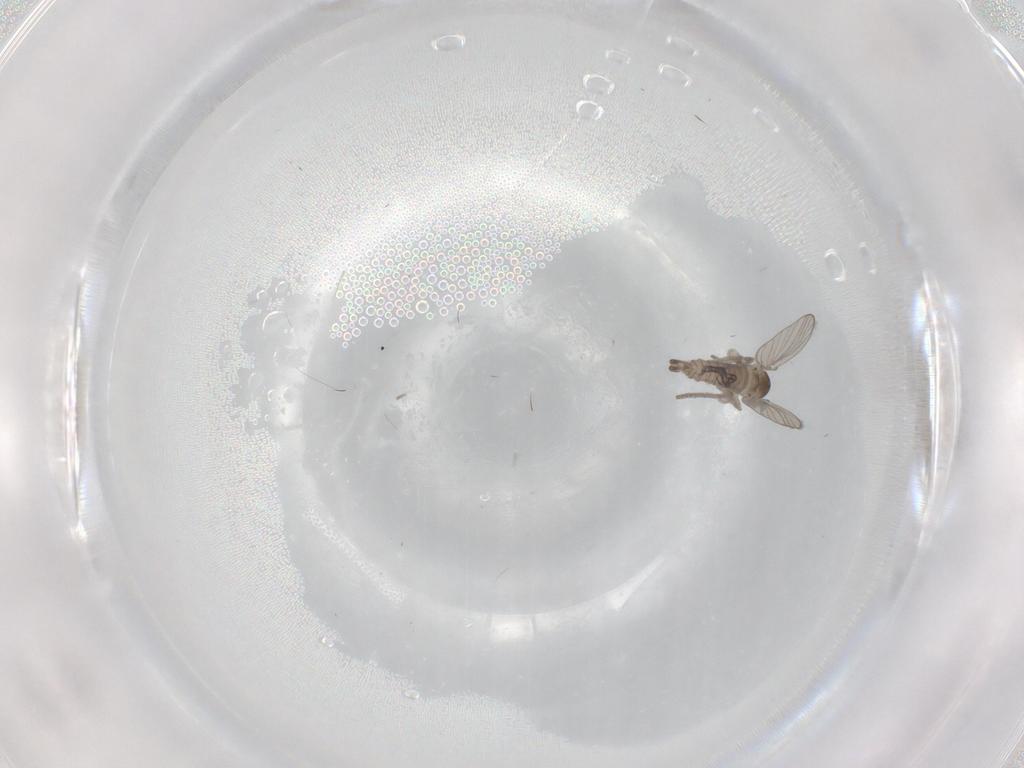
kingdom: Animalia
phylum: Arthropoda
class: Insecta
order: Diptera
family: Psychodidae
